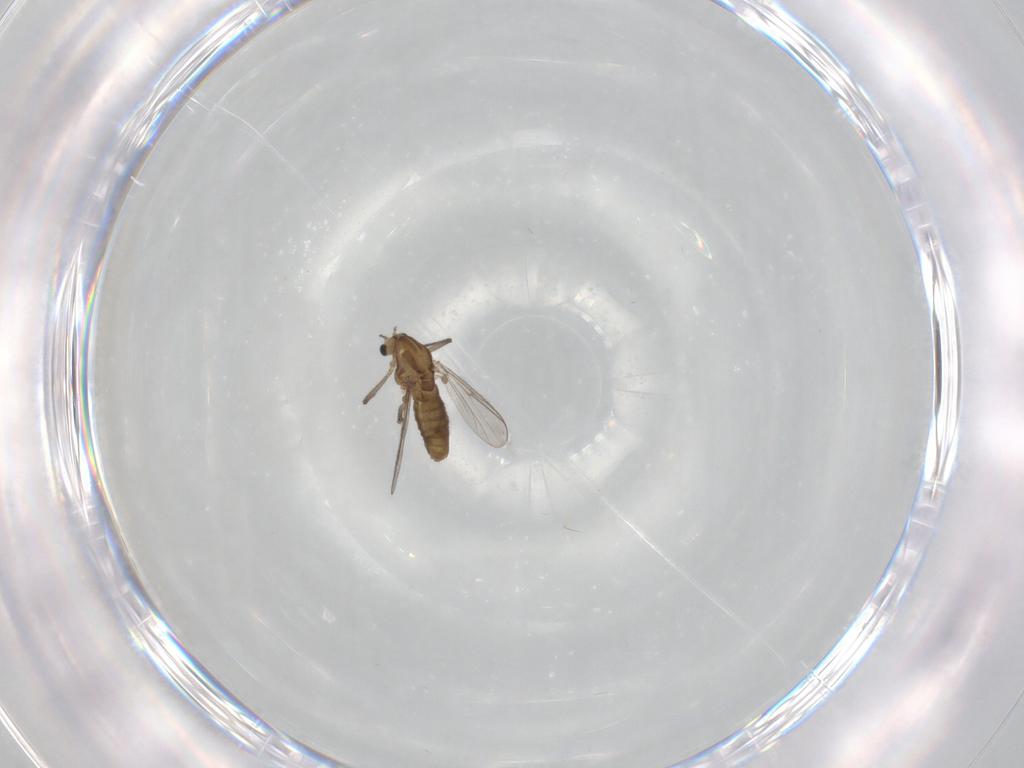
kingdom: Animalia
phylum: Arthropoda
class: Insecta
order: Diptera
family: Chironomidae
